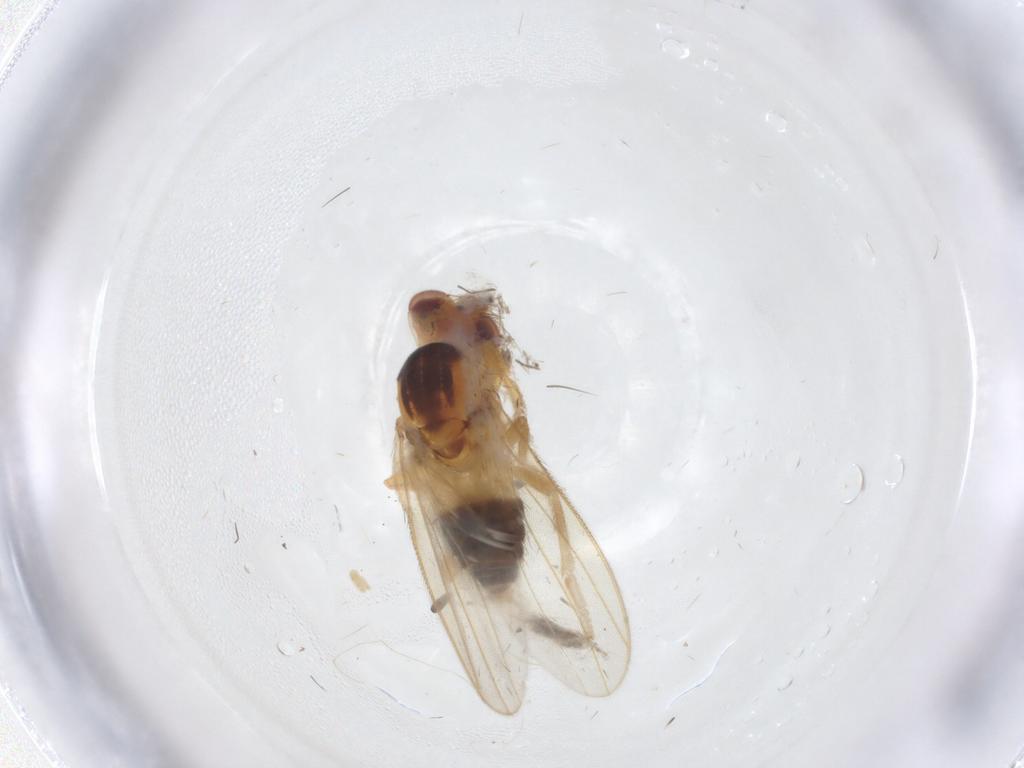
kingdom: Animalia
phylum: Arthropoda
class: Insecta
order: Diptera
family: Periscelididae
